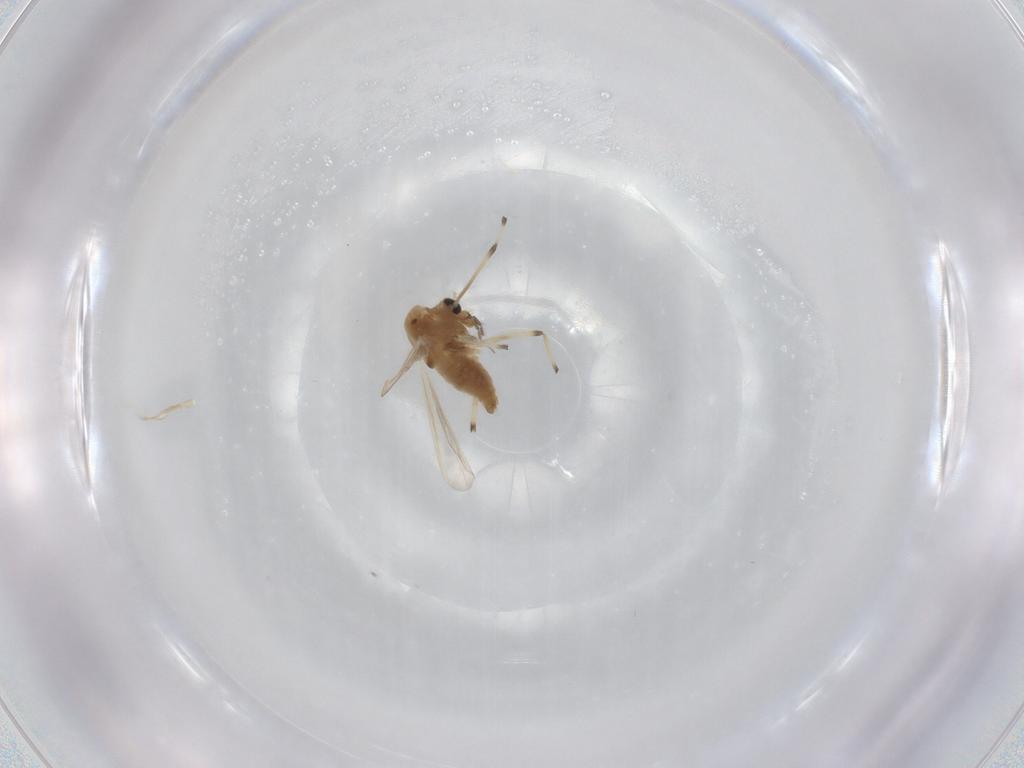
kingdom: Animalia
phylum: Arthropoda
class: Insecta
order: Diptera
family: Chironomidae
